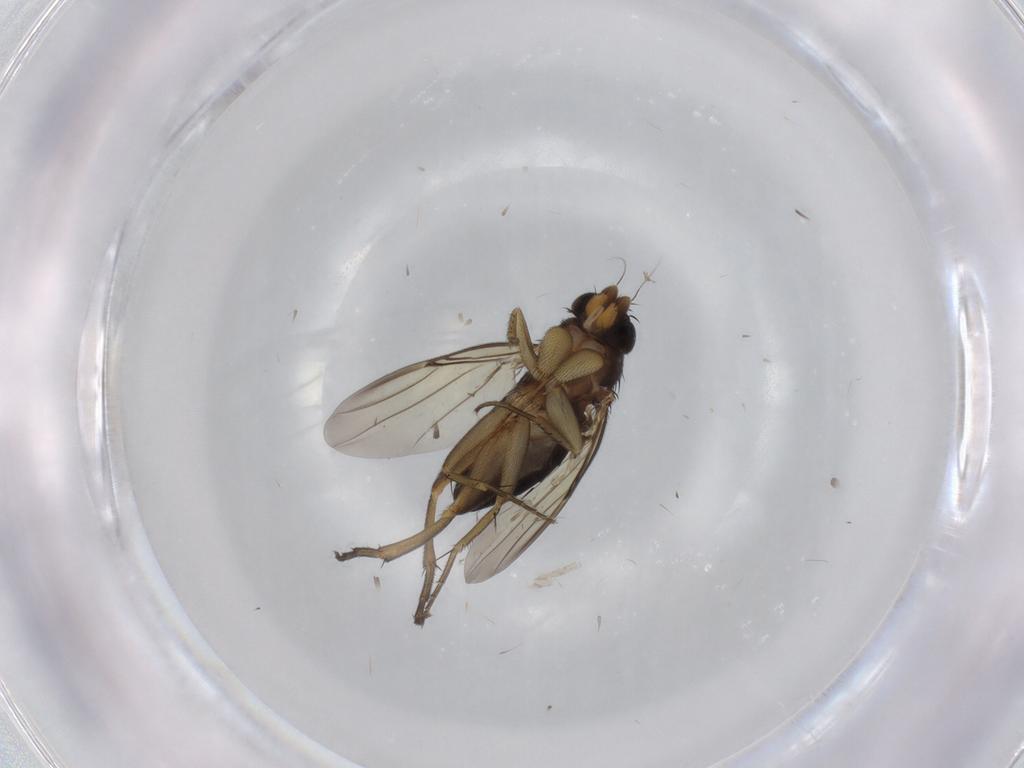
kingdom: Animalia
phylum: Arthropoda
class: Insecta
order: Diptera
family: Phoridae
